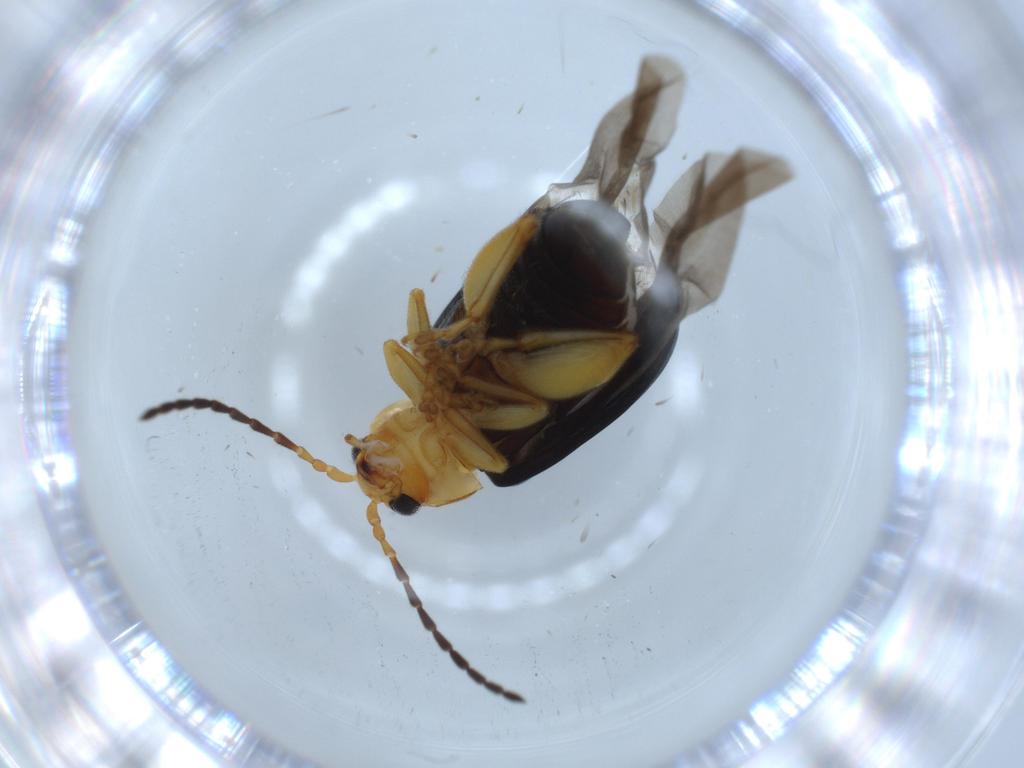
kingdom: Animalia
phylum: Arthropoda
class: Insecta
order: Coleoptera
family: Chrysomelidae
